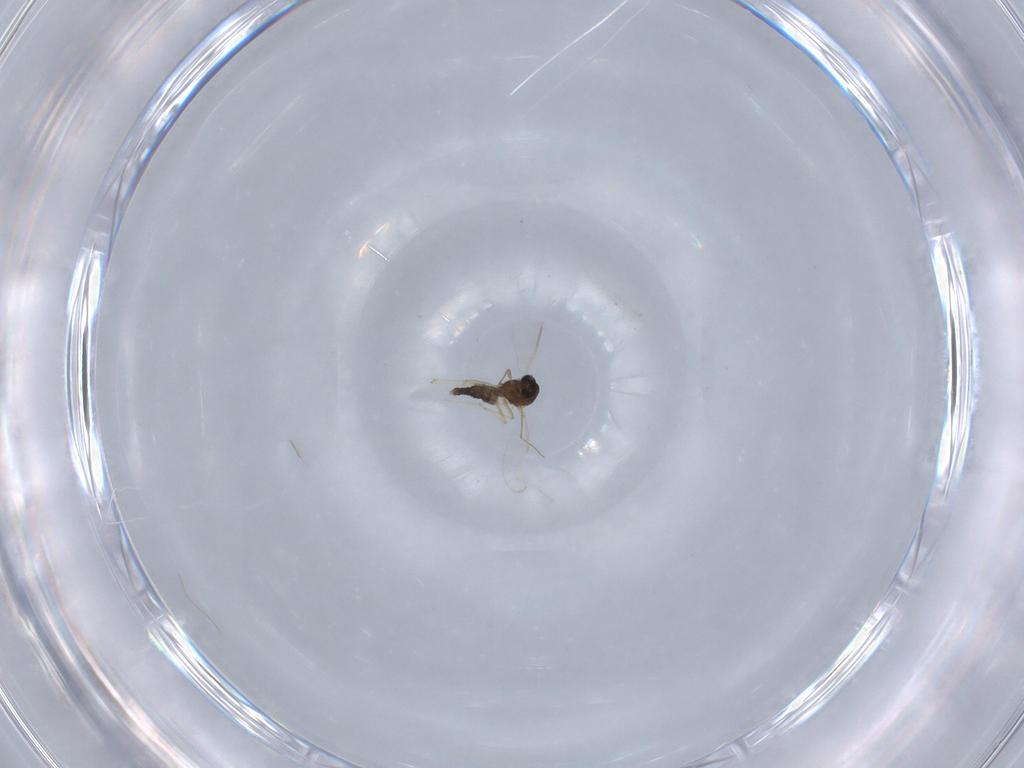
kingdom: Animalia
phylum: Arthropoda
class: Insecta
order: Diptera
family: Chironomidae
